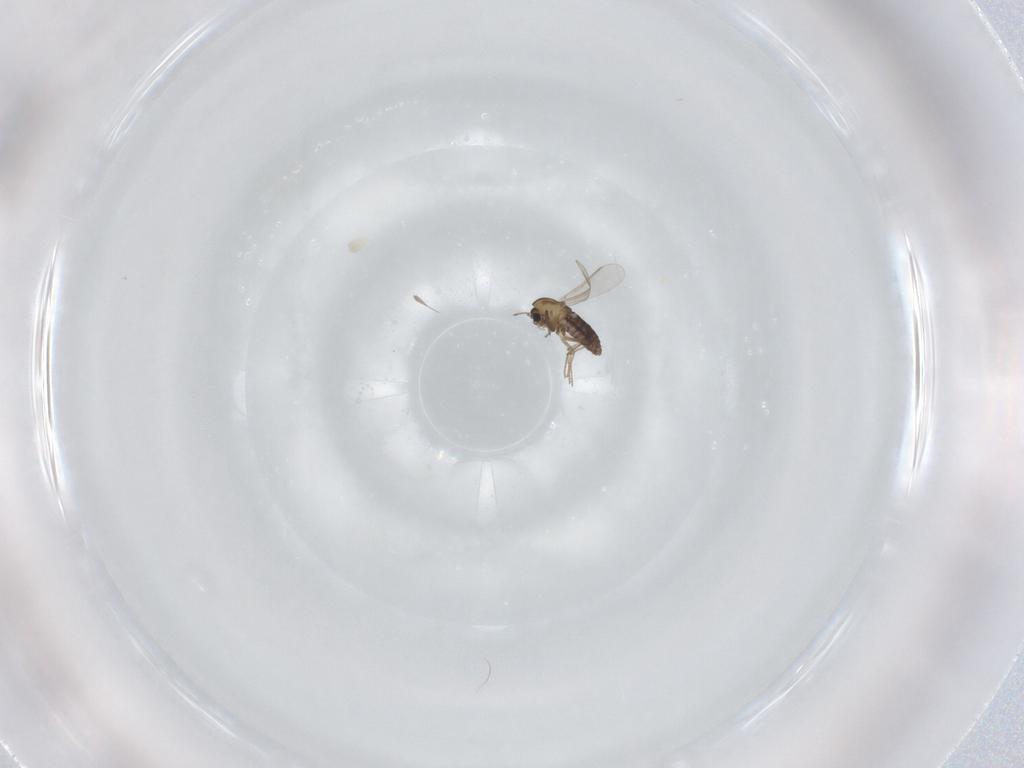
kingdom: Animalia
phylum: Arthropoda
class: Insecta
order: Diptera
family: Phoridae
